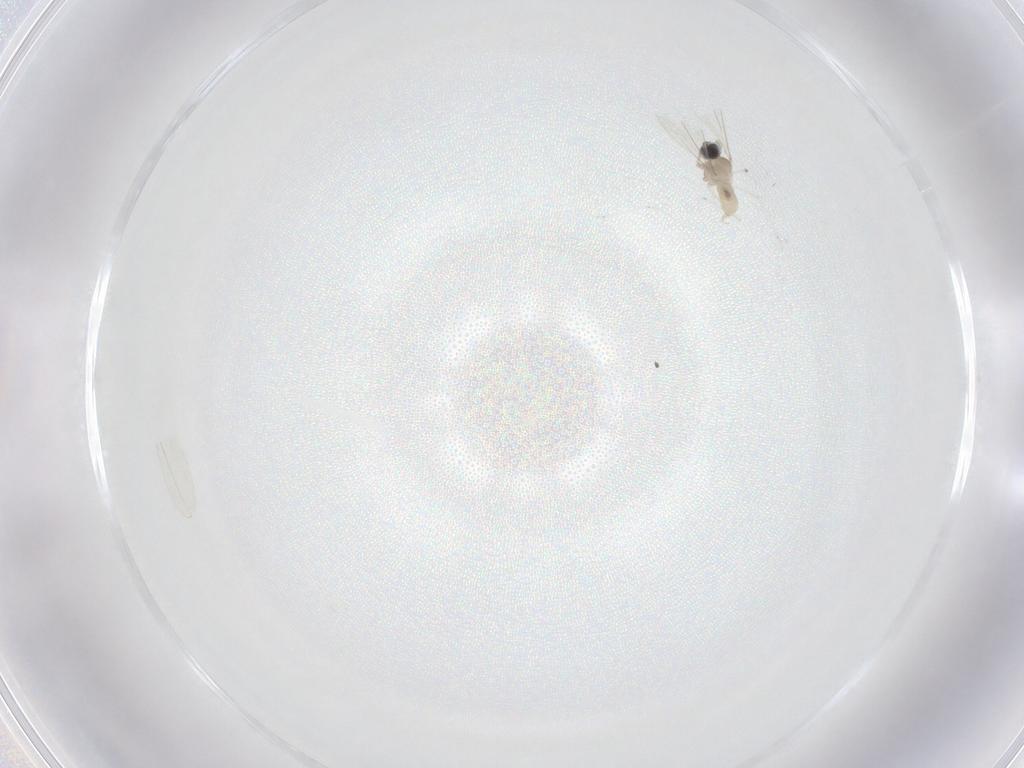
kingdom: Animalia
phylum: Arthropoda
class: Insecta
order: Diptera
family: Cecidomyiidae
